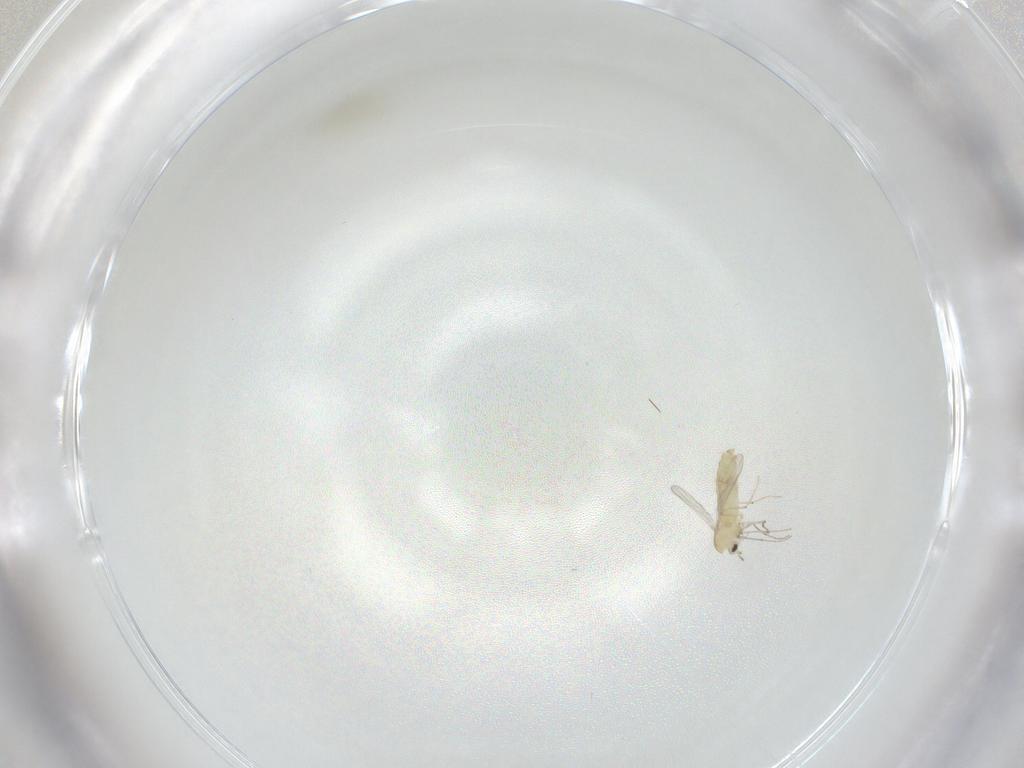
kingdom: Animalia
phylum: Arthropoda
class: Insecta
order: Diptera
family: Chironomidae
